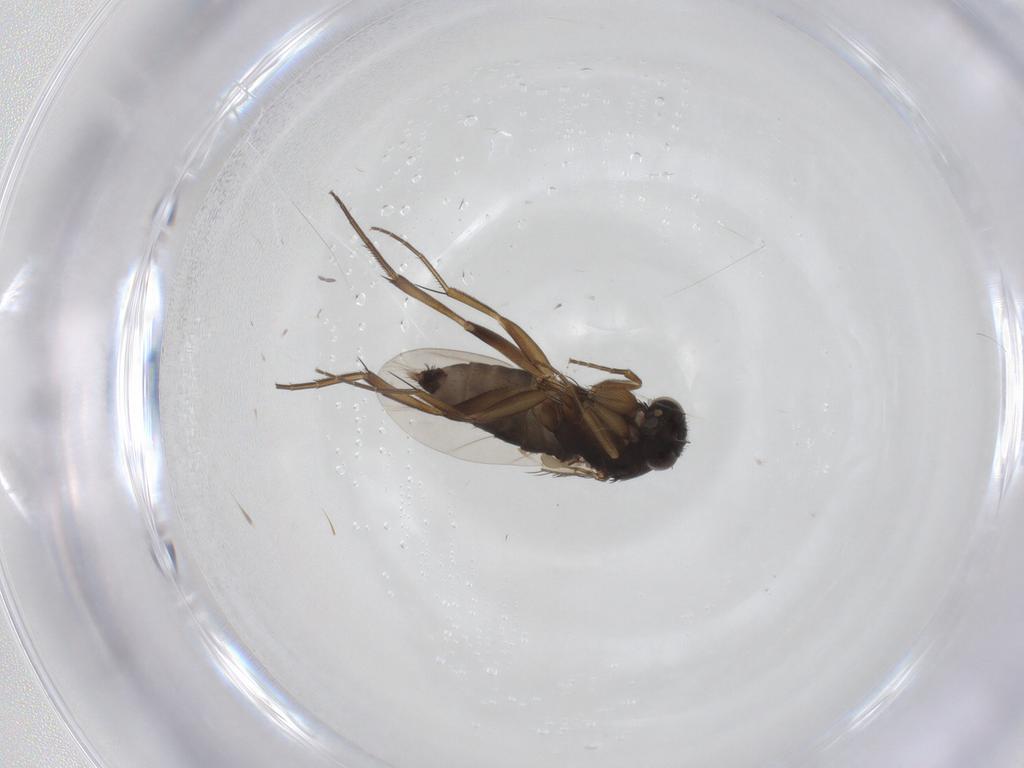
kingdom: Animalia
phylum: Arthropoda
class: Insecta
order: Diptera
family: Phoridae
